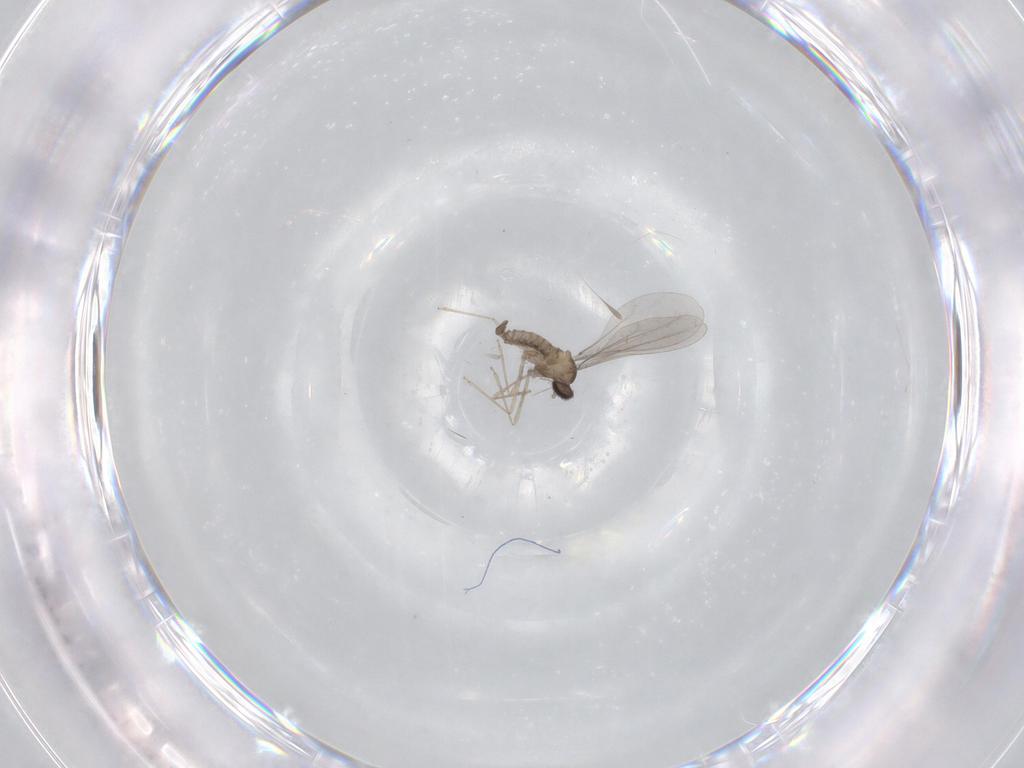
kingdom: Animalia
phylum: Arthropoda
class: Insecta
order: Diptera
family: Cecidomyiidae
